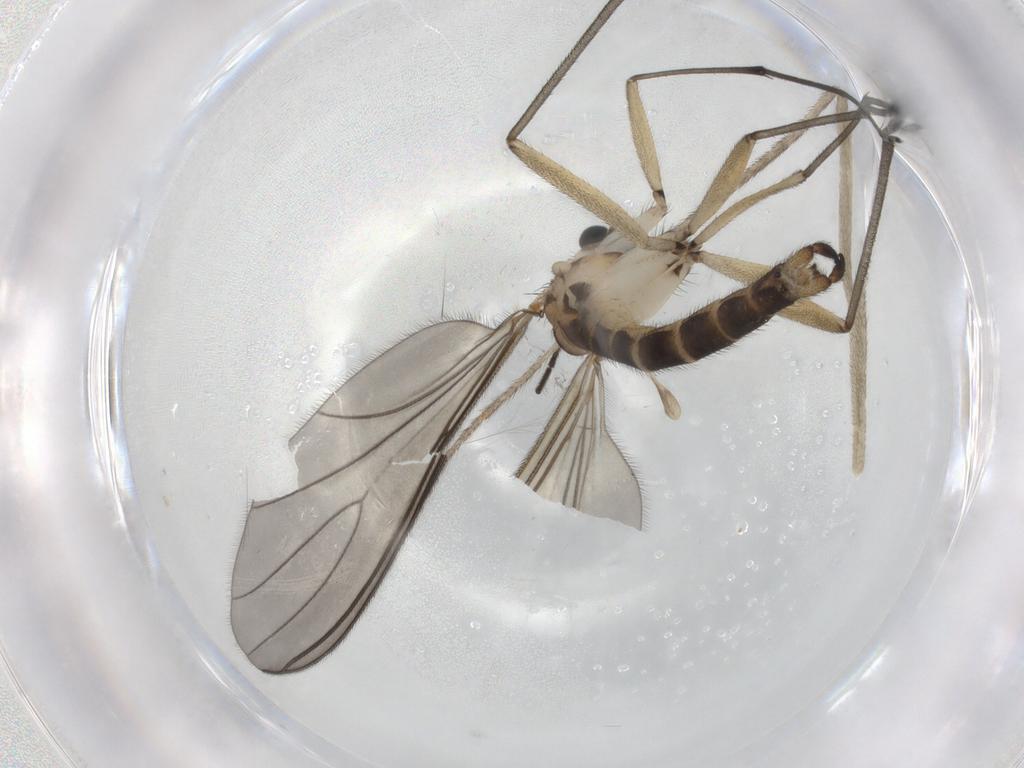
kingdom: Animalia
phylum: Arthropoda
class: Insecta
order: Diptera
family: Sciaridae
